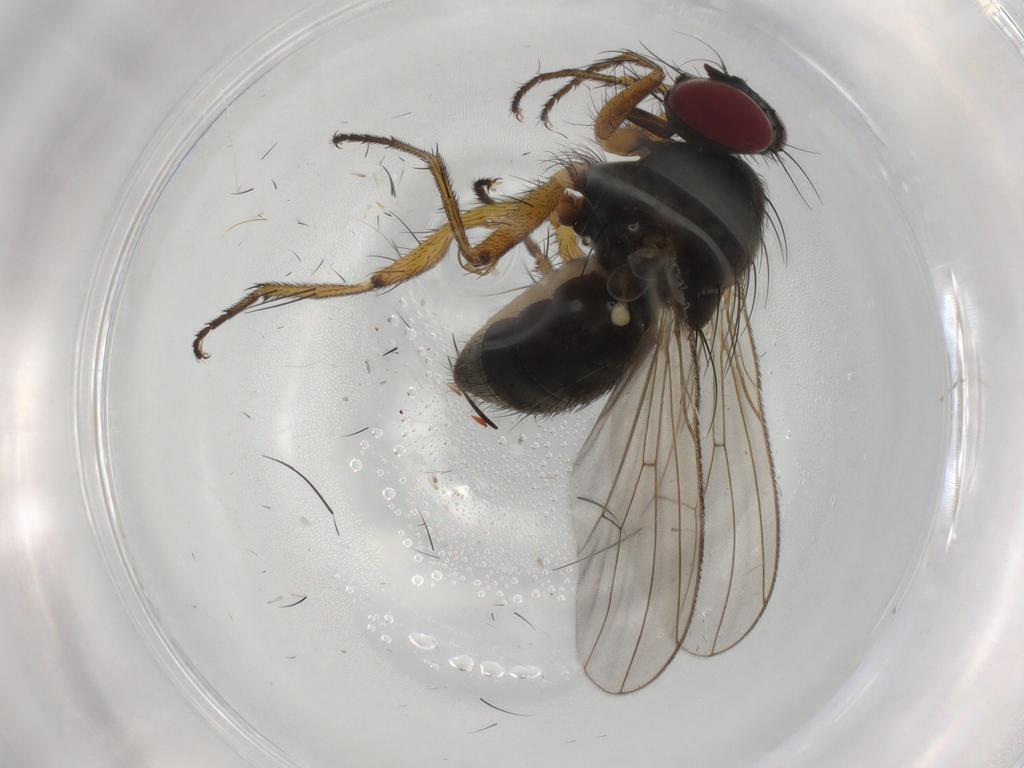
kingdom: Animalia
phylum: Arthropoda
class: Insecta
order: Diptera
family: Muscidae
